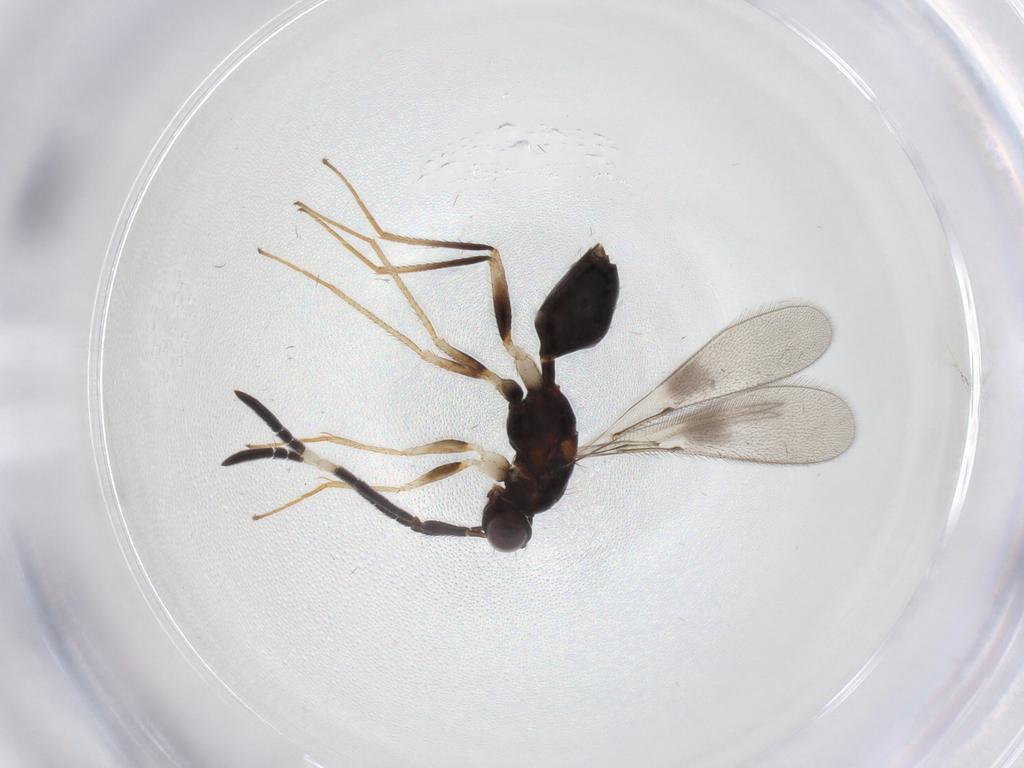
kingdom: Animalia
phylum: Arthropoda
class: Insecta
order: Hymenoptera
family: Mymaridae
